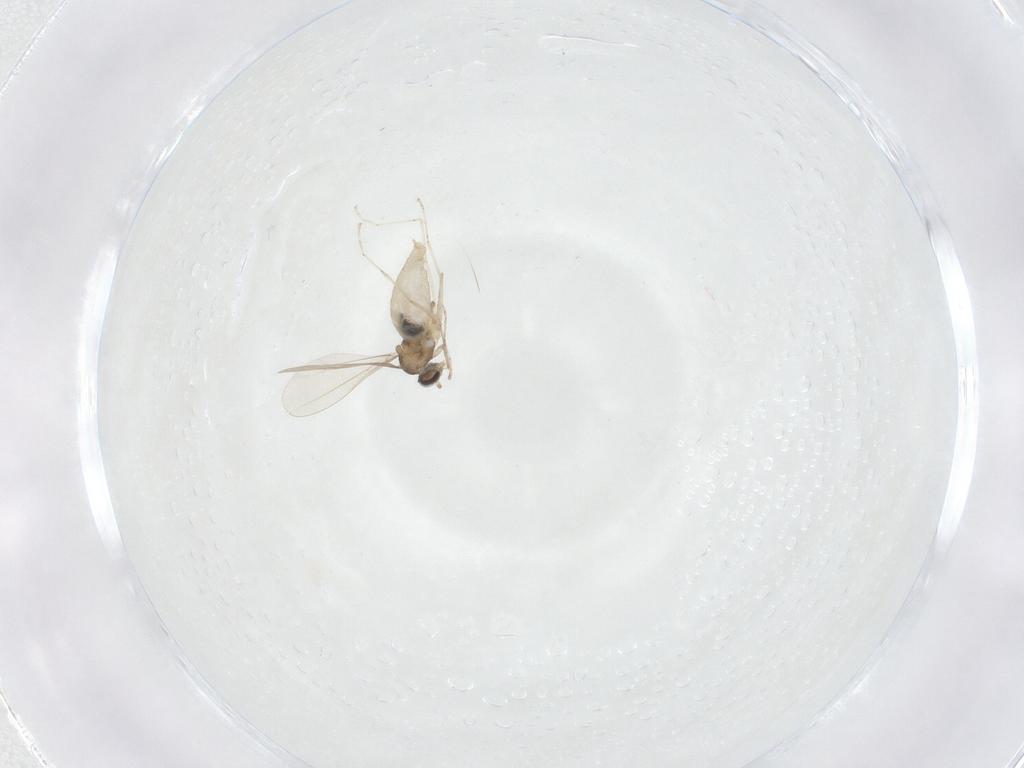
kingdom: Animalia
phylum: Arthropoda
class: Insecta
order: Diptera
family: Cecidomyiidae
